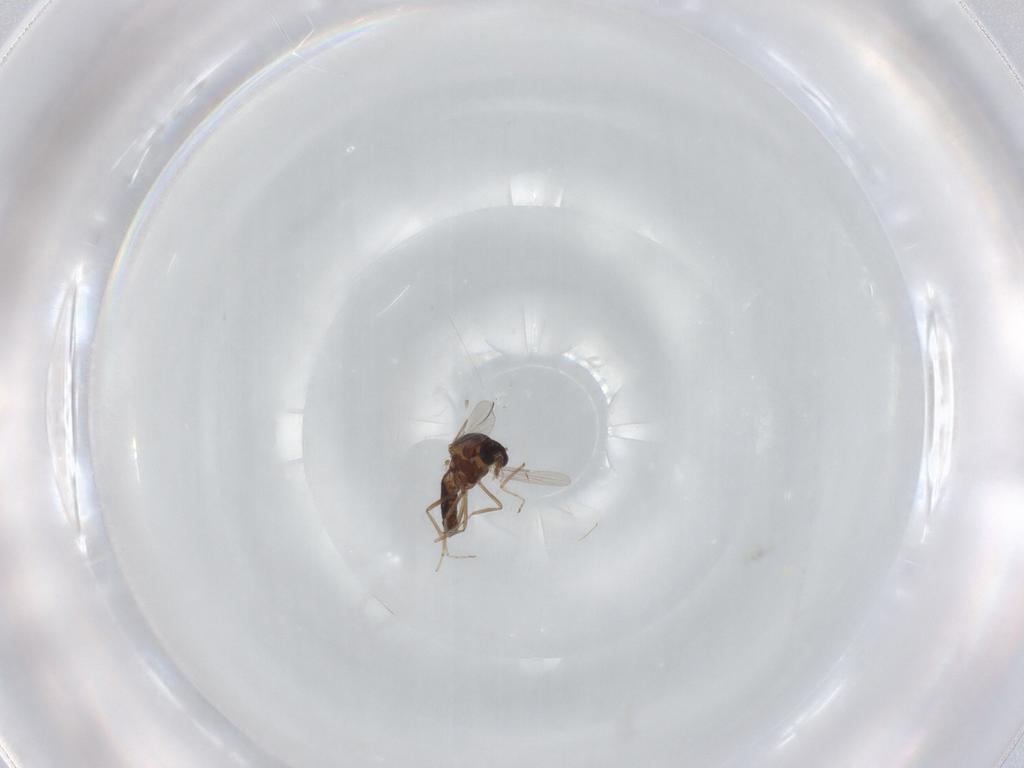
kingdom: Animalia
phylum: Arthropoda
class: Insecta
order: Diptera
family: Ceratopogonidae
